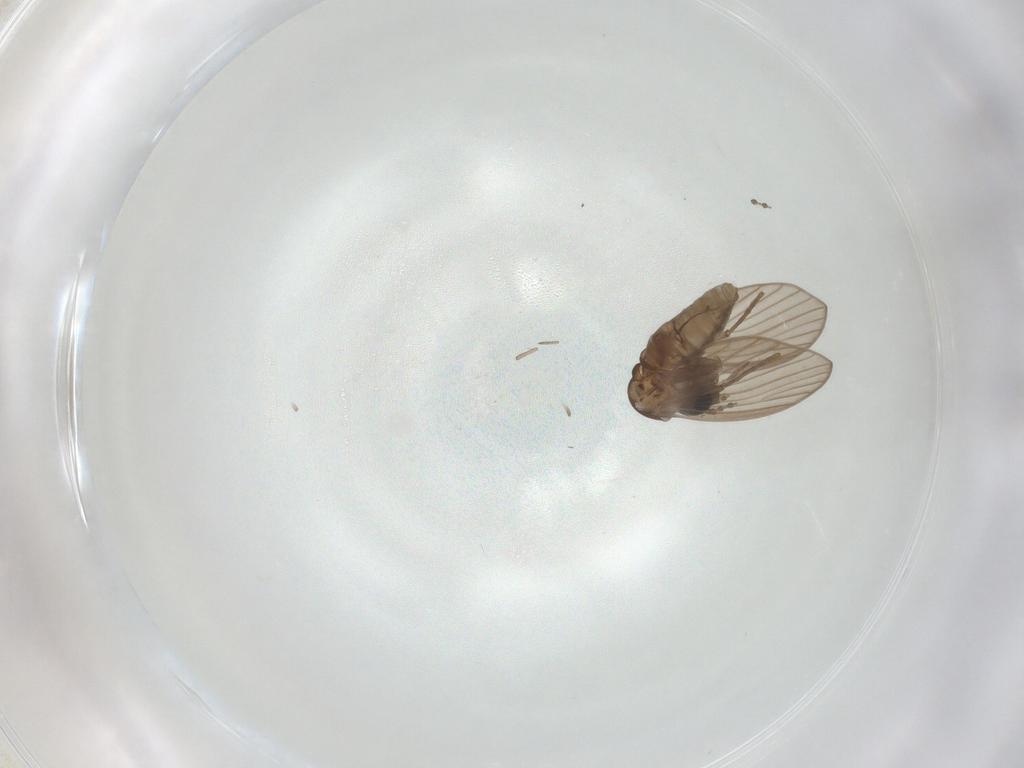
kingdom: Animalia
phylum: Arthropoda
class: Insecta
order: Diptera
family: Psychodidae
